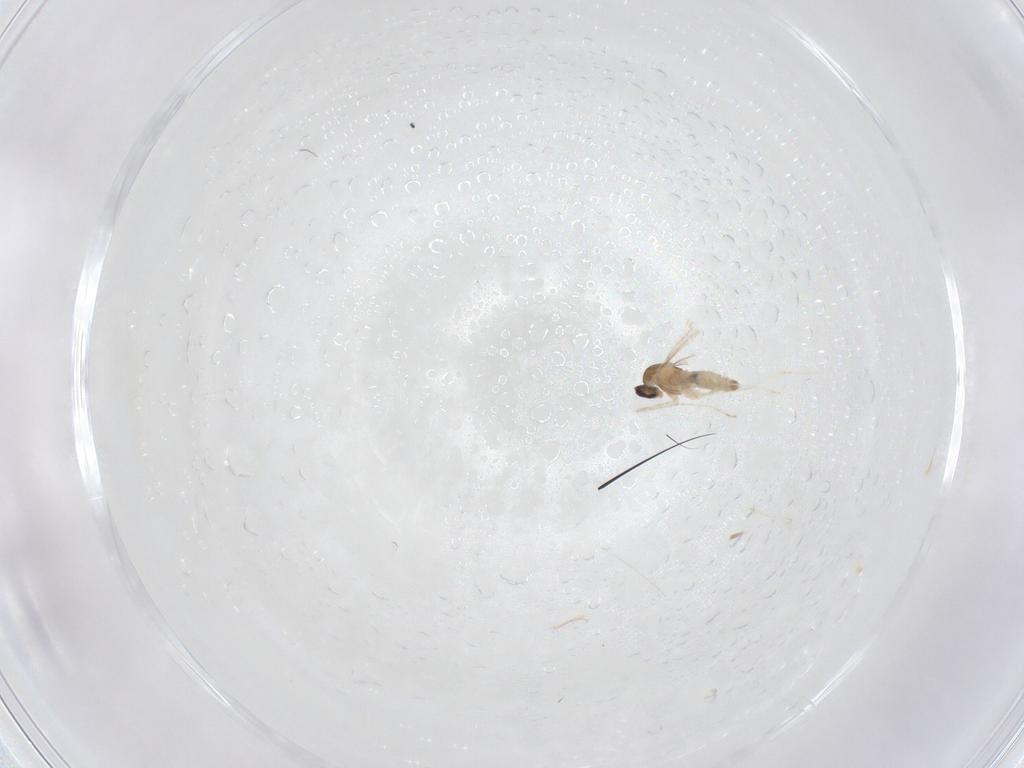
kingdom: Animalia
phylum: Arthropoda
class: Insecta
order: Diptera
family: Cecidomyiidae
